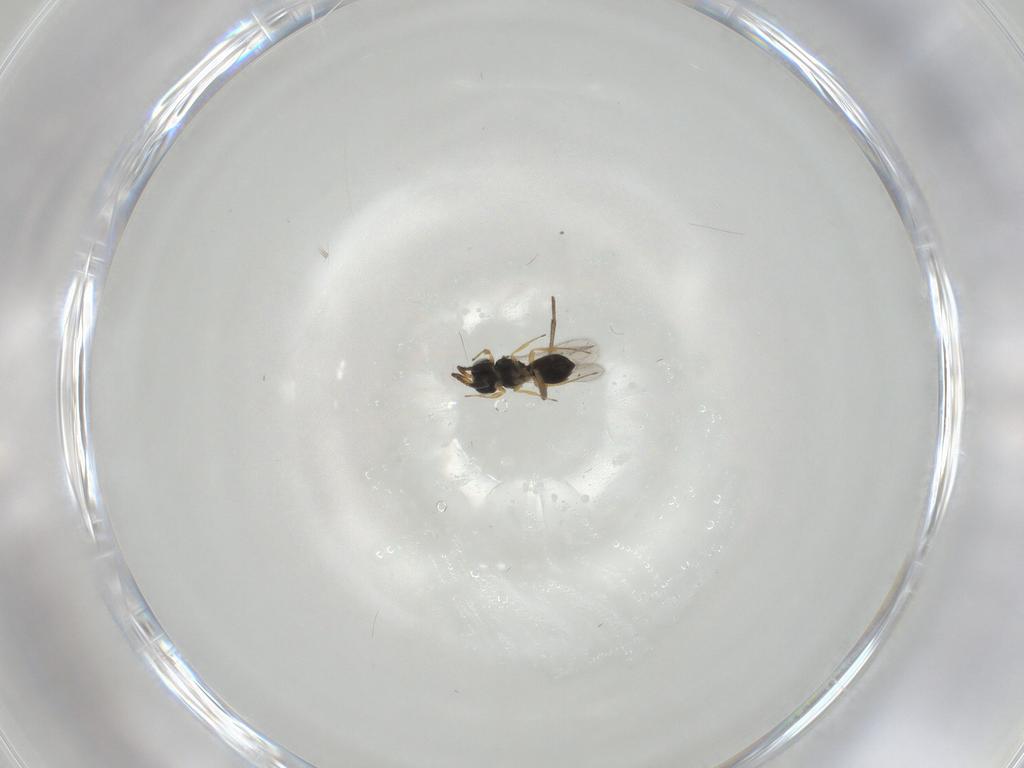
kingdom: Animalia
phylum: Arthropoda
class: Insecta
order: Hymenoptera
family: Scelionidae
